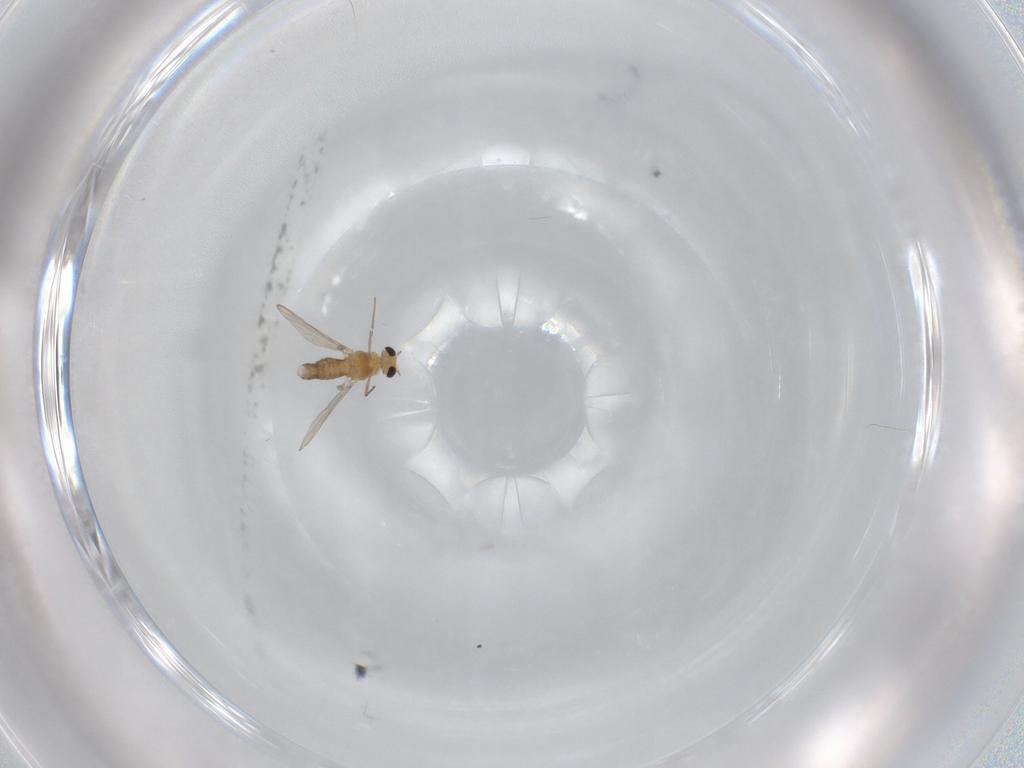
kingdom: Animalia
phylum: Arthropoda
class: Insecta
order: Diptera
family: Chironomidae
